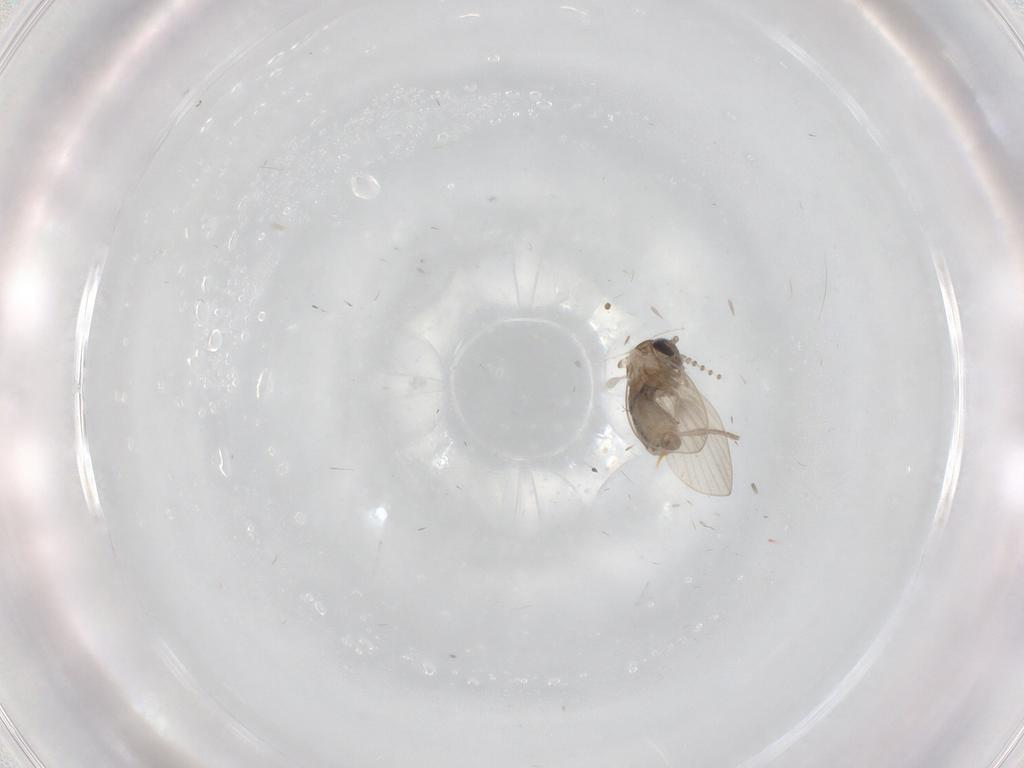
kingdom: Animalia
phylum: Arthropoda
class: Insecta
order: Diptera
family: Psychodidae
